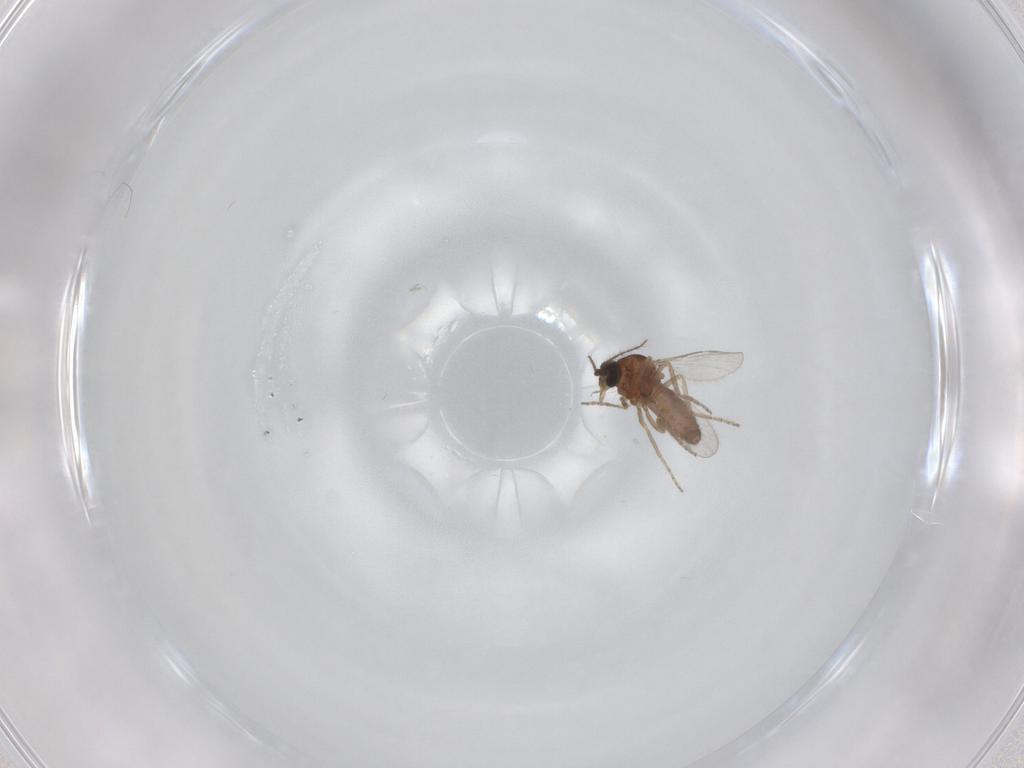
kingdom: Animalia
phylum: Arthropoda
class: Insecta
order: Diptera
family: Ceratopogonidae
